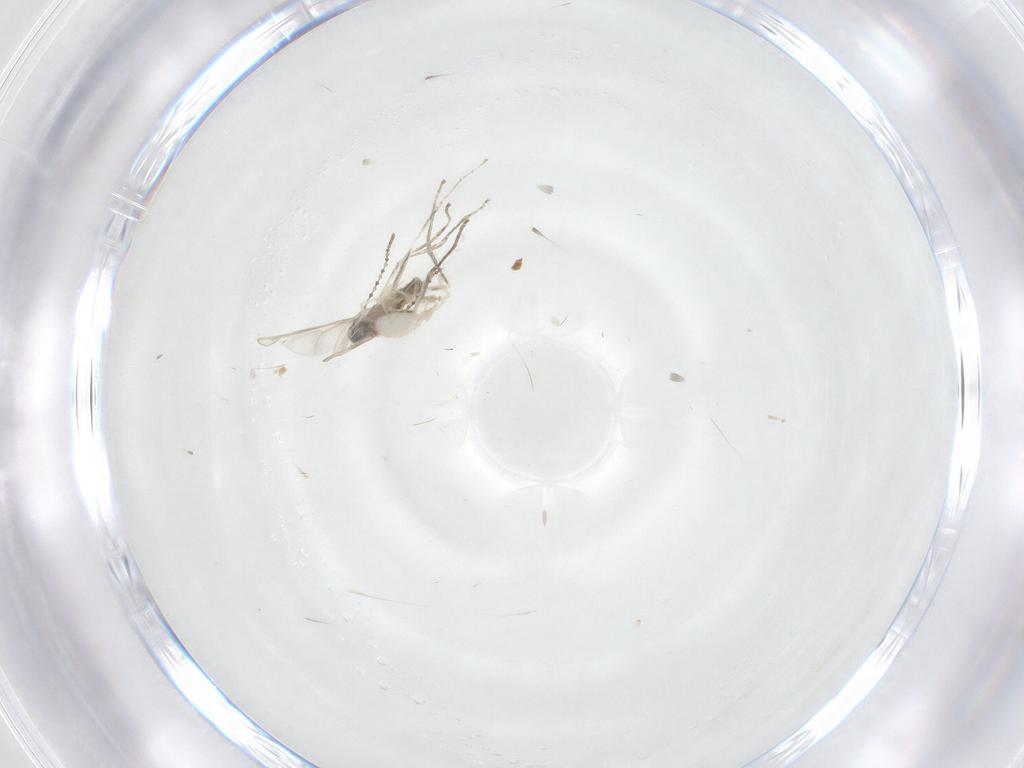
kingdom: Animalia
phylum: Arthropoda
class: Insecta
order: Diptera
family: Cecidomyiidae
